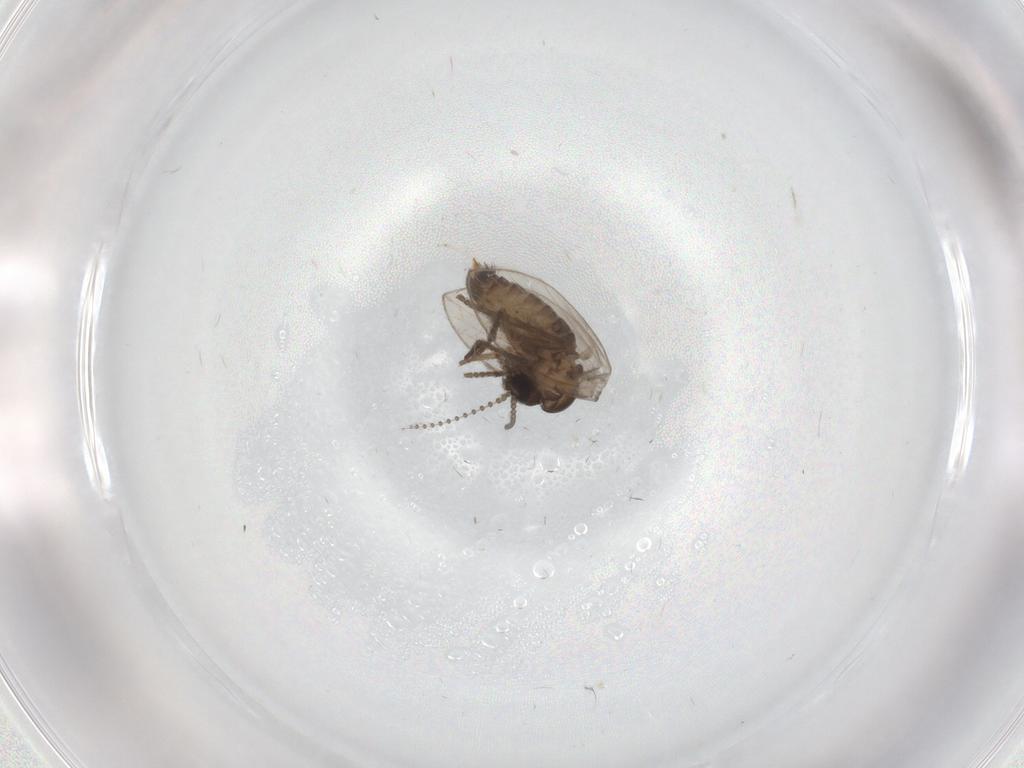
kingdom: Animalia
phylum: Arthropoda
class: Insecta
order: Diptera
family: Psychodidae
